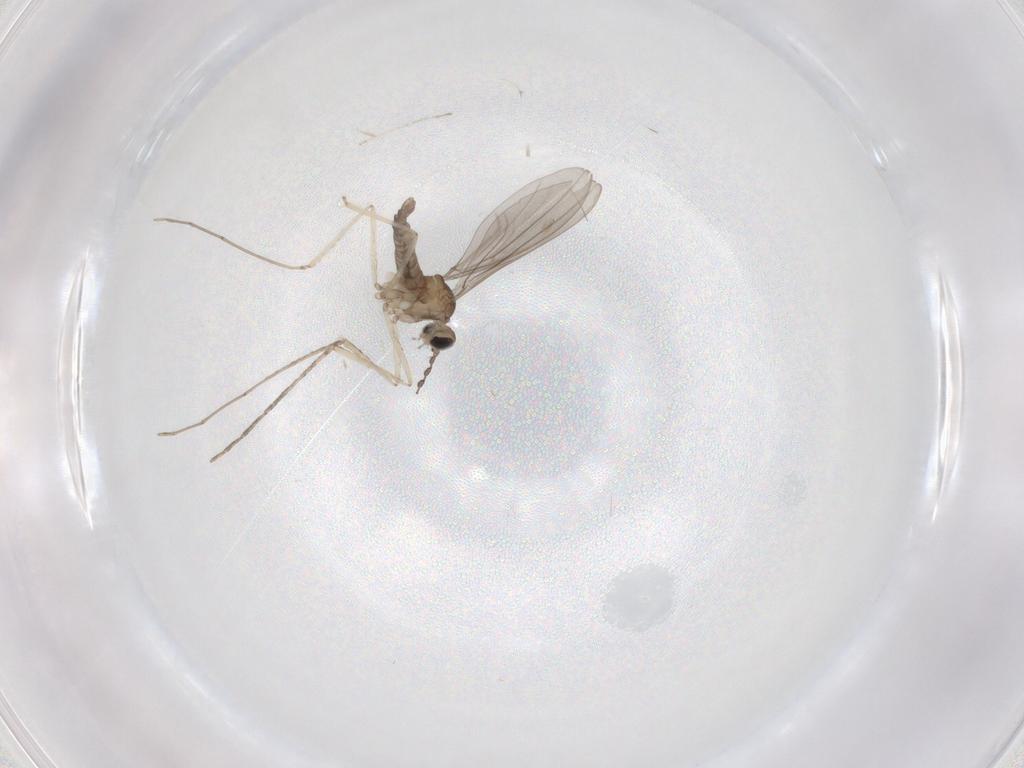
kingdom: Animalia
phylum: Arthropoda
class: Insecta
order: Diptera
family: Cecidomyiidae
